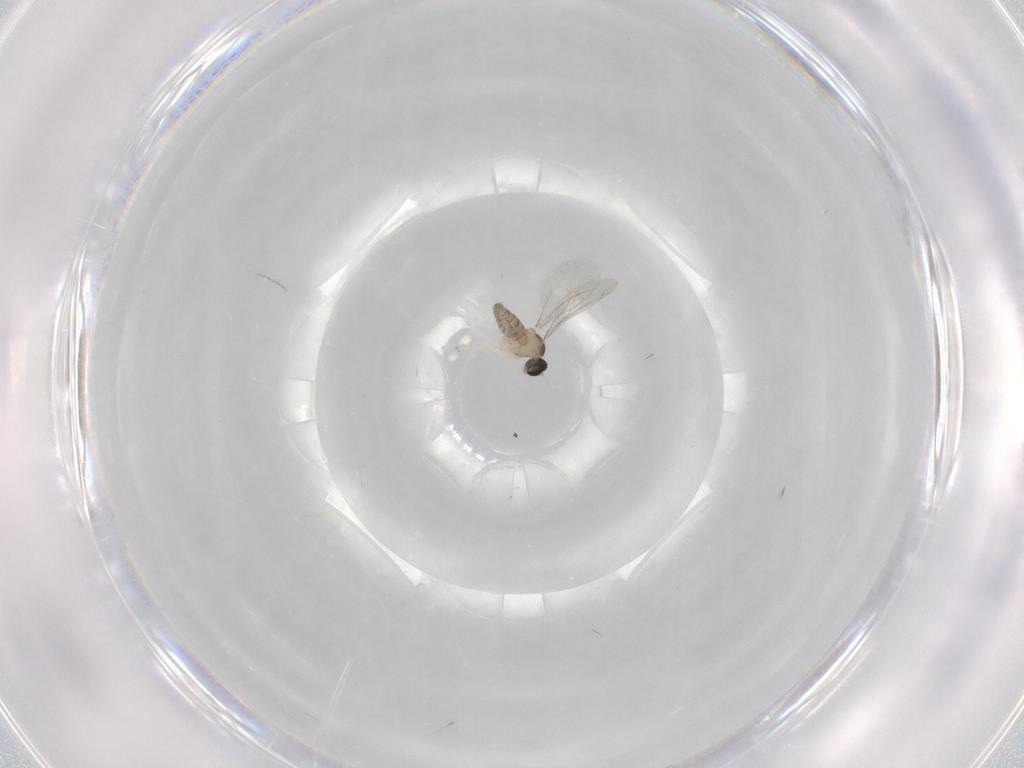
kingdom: Animalia
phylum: Arthropoda
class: Insecta
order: Diptera
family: Cecidomyiidae
